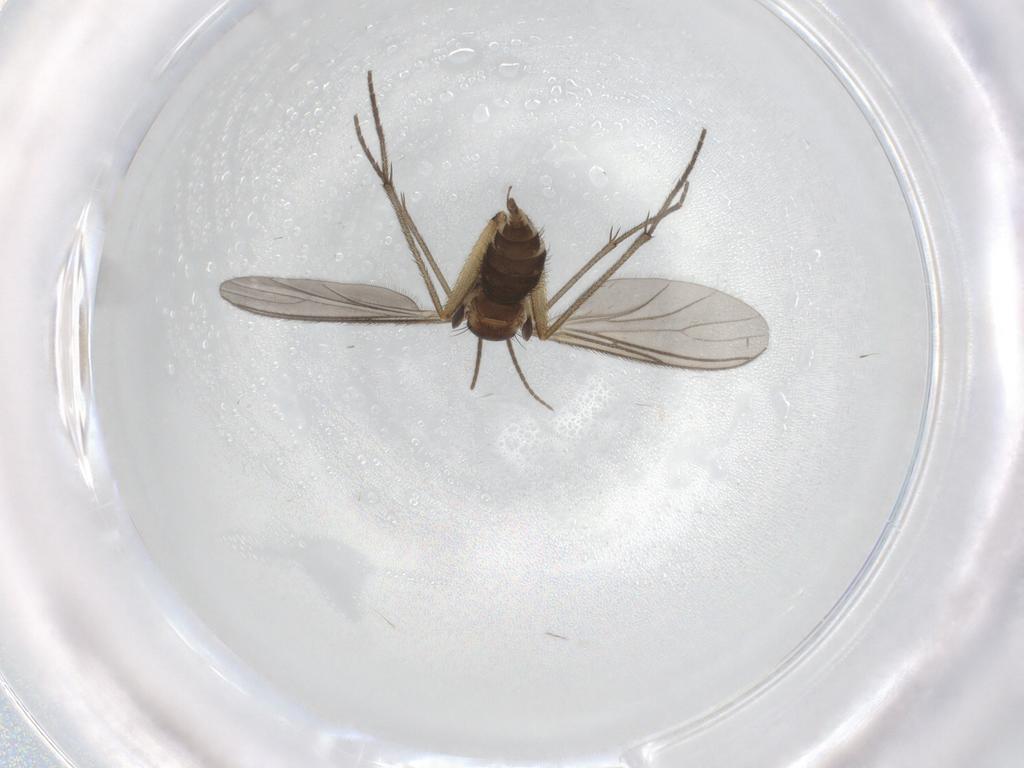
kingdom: Animalia
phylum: Arthropoda
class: Insecta
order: Diptera
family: Sciaridae
